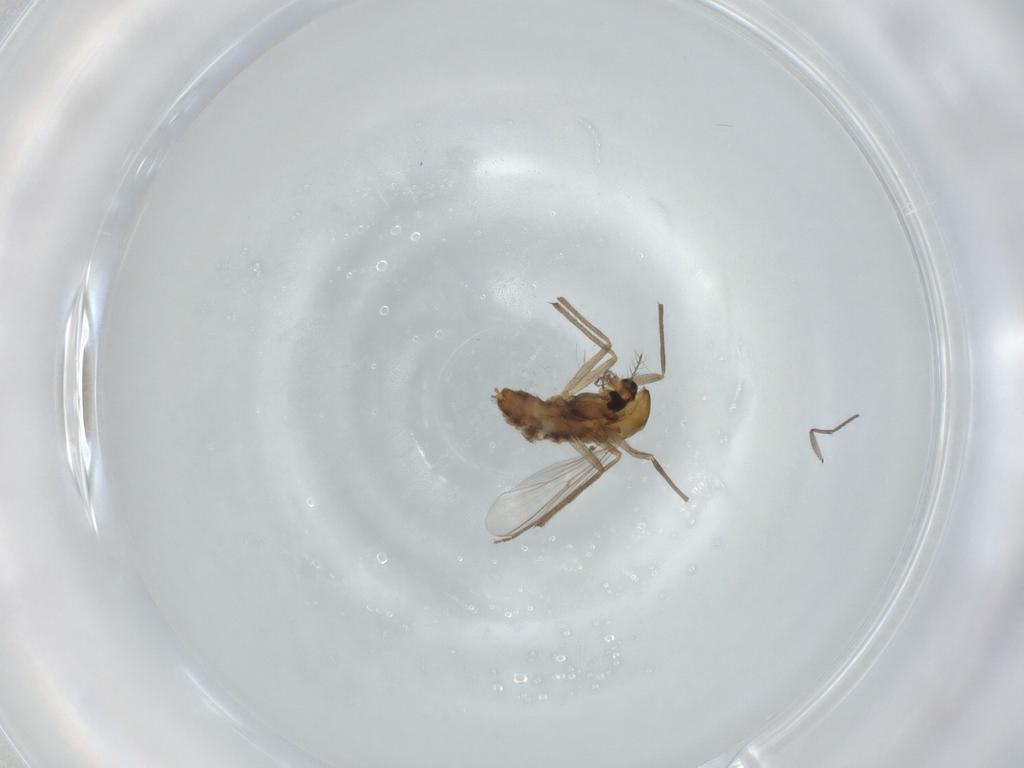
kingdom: Animalia
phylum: Arthropoda
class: Insecta
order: Diptera
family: Chironomidae
